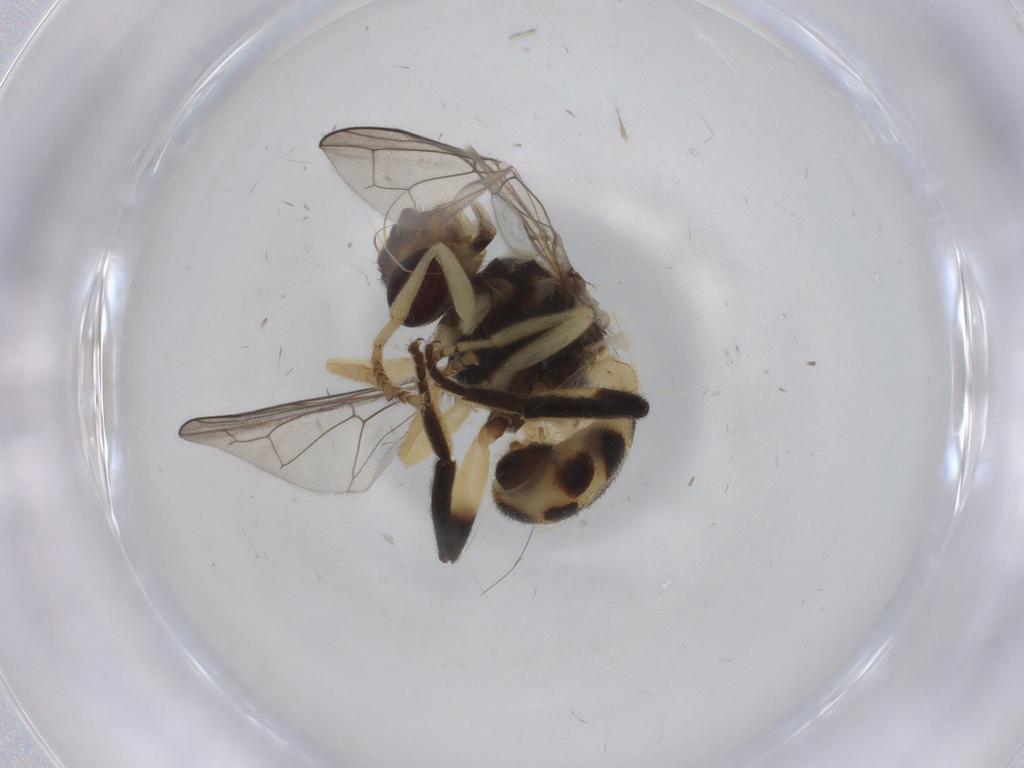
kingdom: Animalia
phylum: Arthropoda
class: Insecta
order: Diptera
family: Syrphidae
